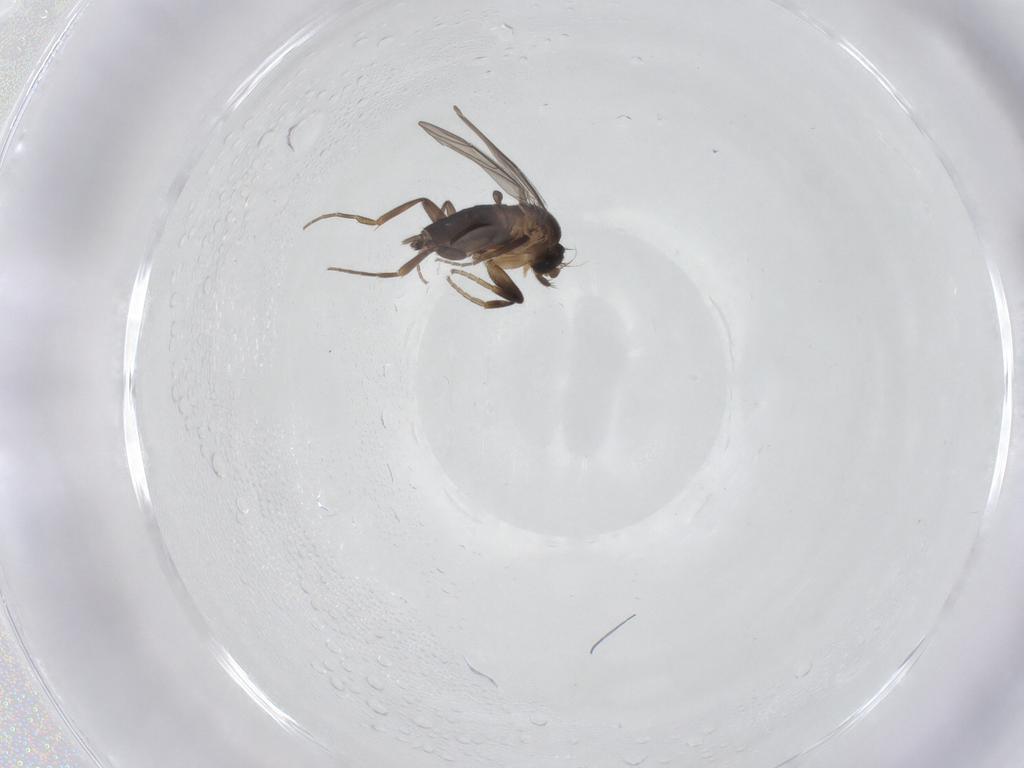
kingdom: Animalia
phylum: Arthropoda
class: Insecta
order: Diptera
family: Phoridae
